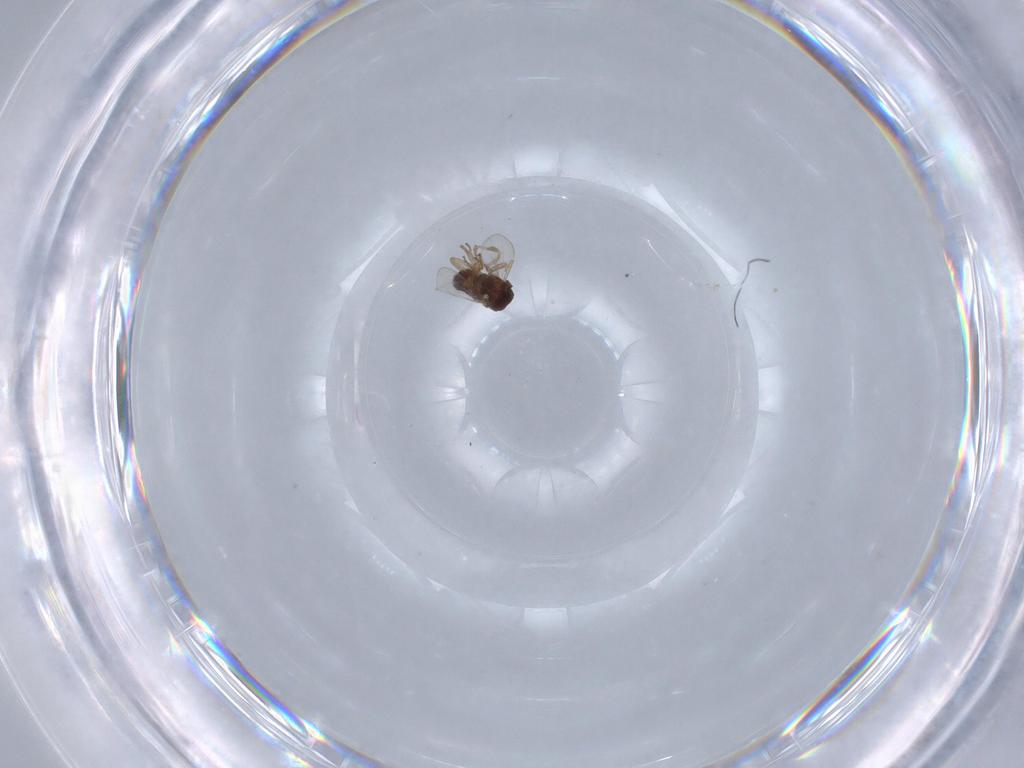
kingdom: Animalia
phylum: Arthropoda
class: Insecta
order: Diptera
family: Ceratopogonidae
